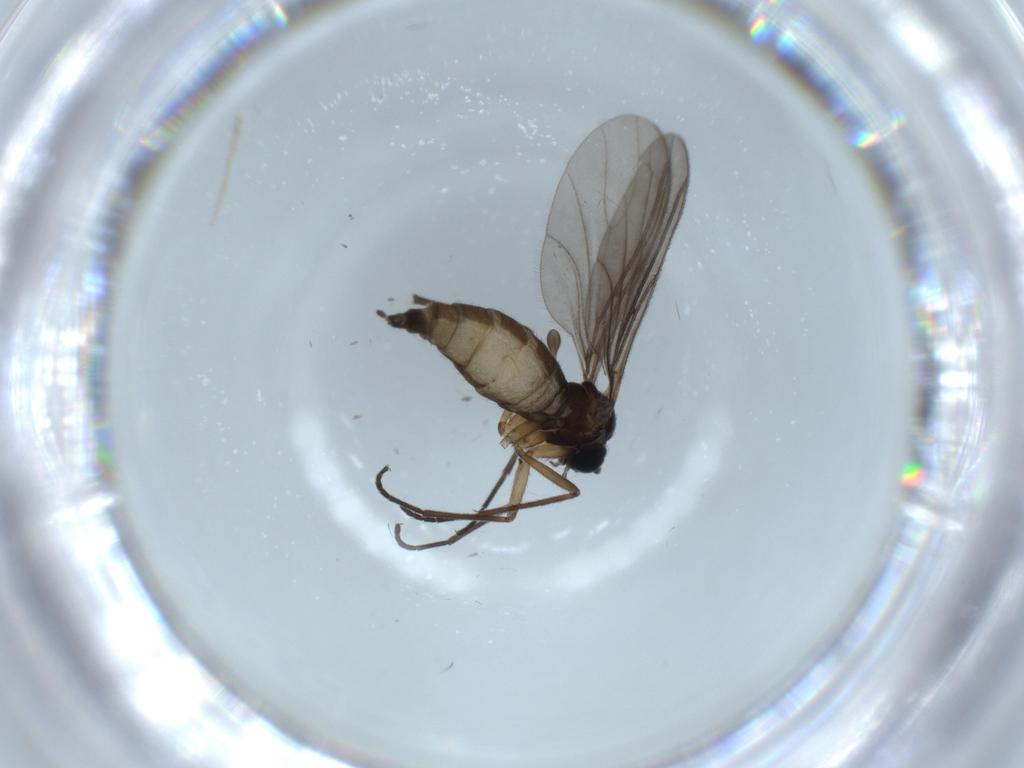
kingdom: Animalia
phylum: Arthropoda
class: Insecta
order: Diptera
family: Sciaridae
